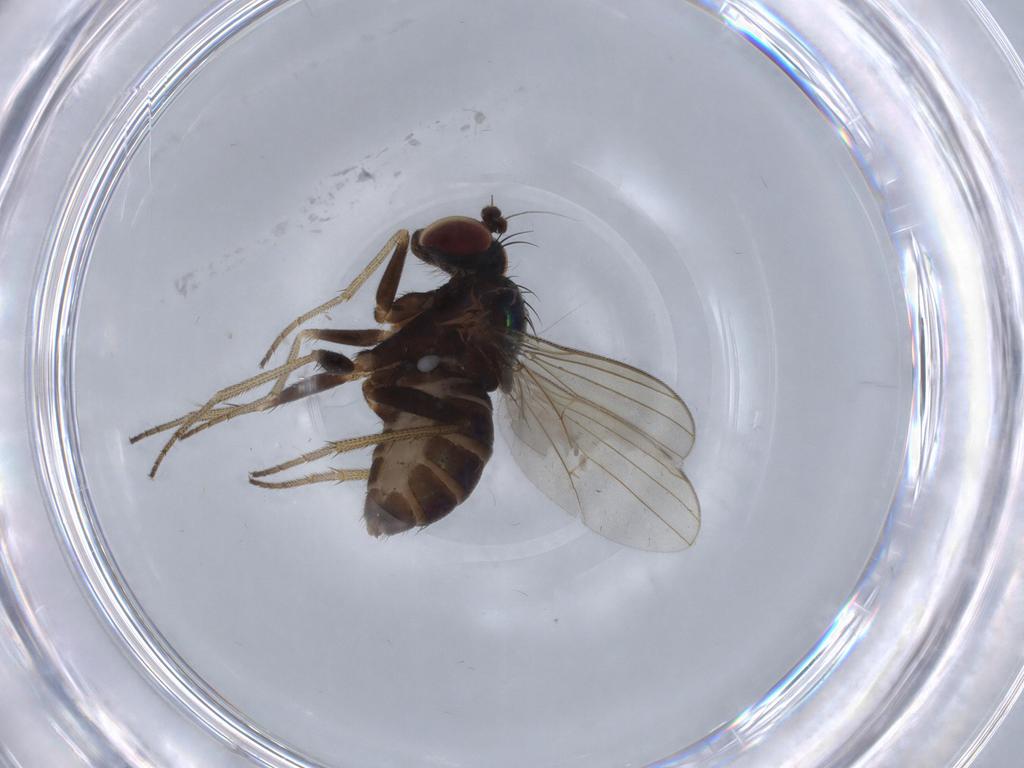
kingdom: Animalia
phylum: Arthropoda
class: Insecta
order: Diptera
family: Dolichopodidae
